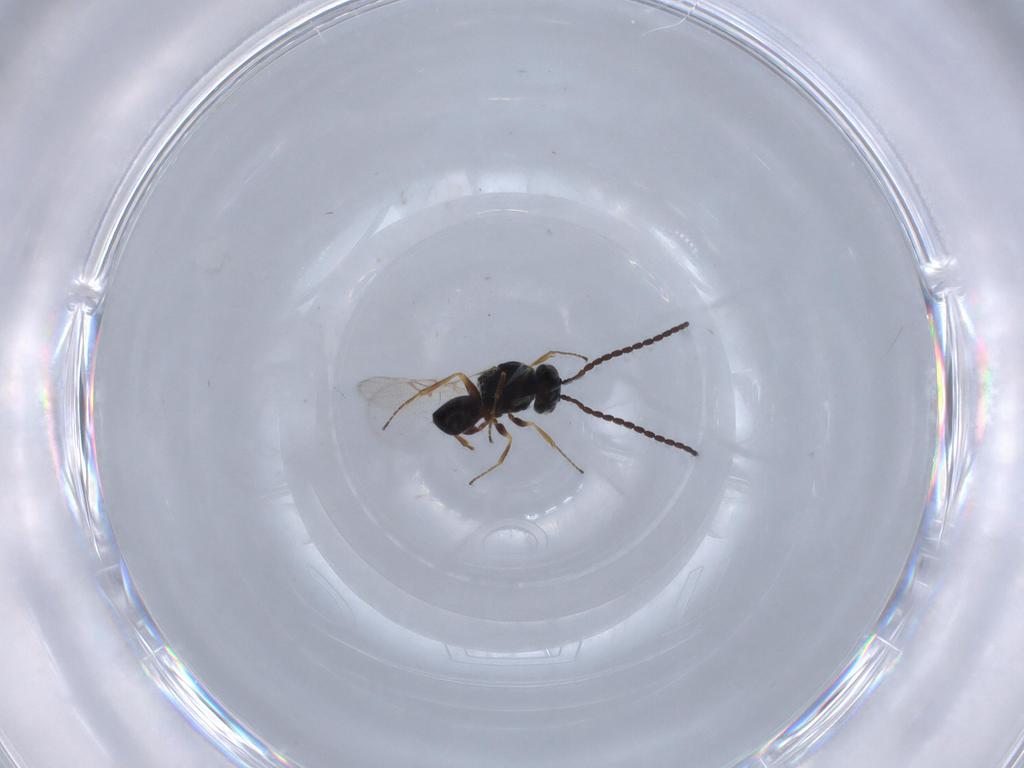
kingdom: Animalia
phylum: Arthropoda
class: Insecta
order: Hymenoptera
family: Figitidae
